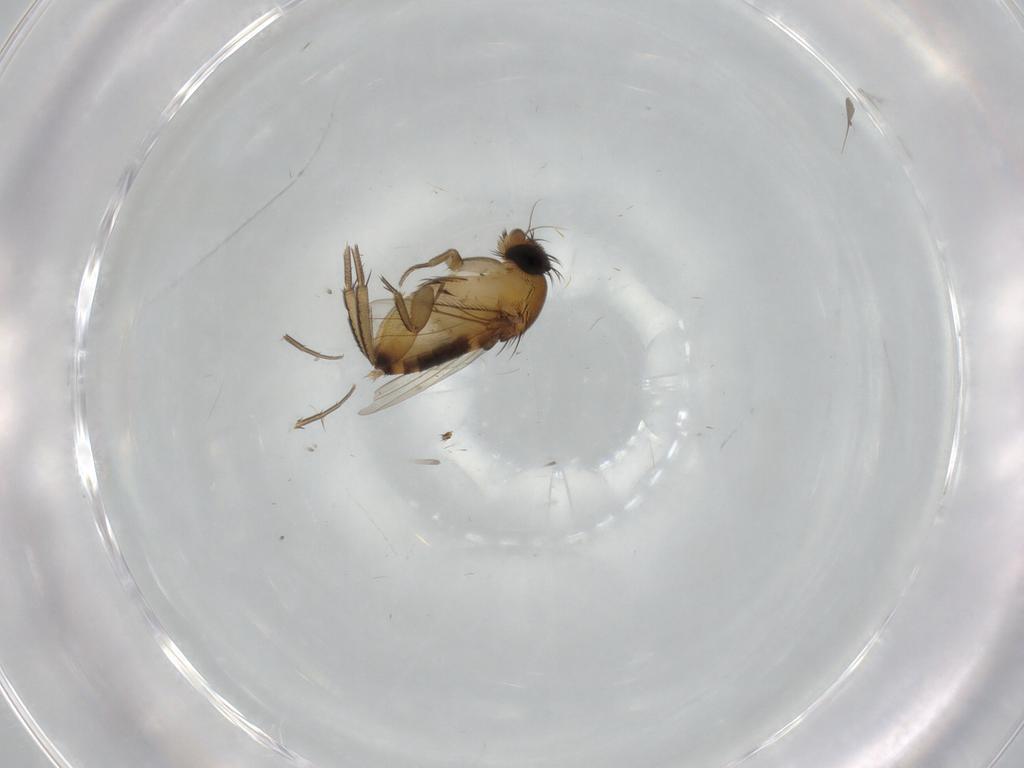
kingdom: Animalia
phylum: Arthropoda
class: Insecta
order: Diptera
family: Phoridae
